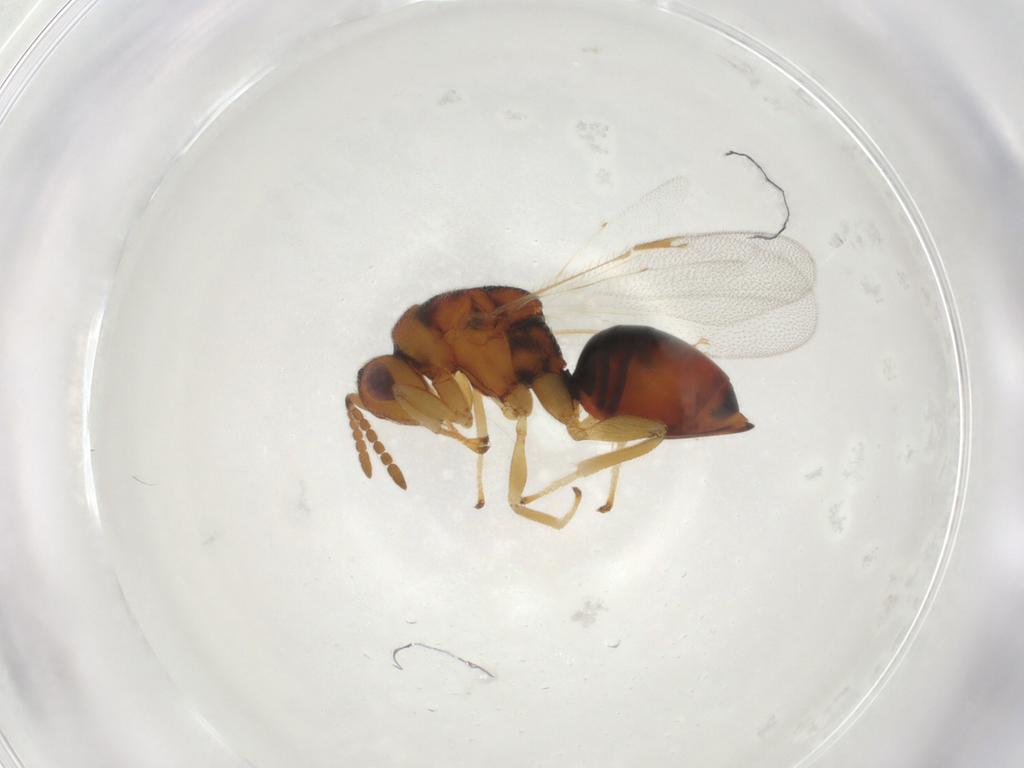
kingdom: Animalia
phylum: Arthropoda
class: Insecta
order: Hymenoptera
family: Eurytomidae
